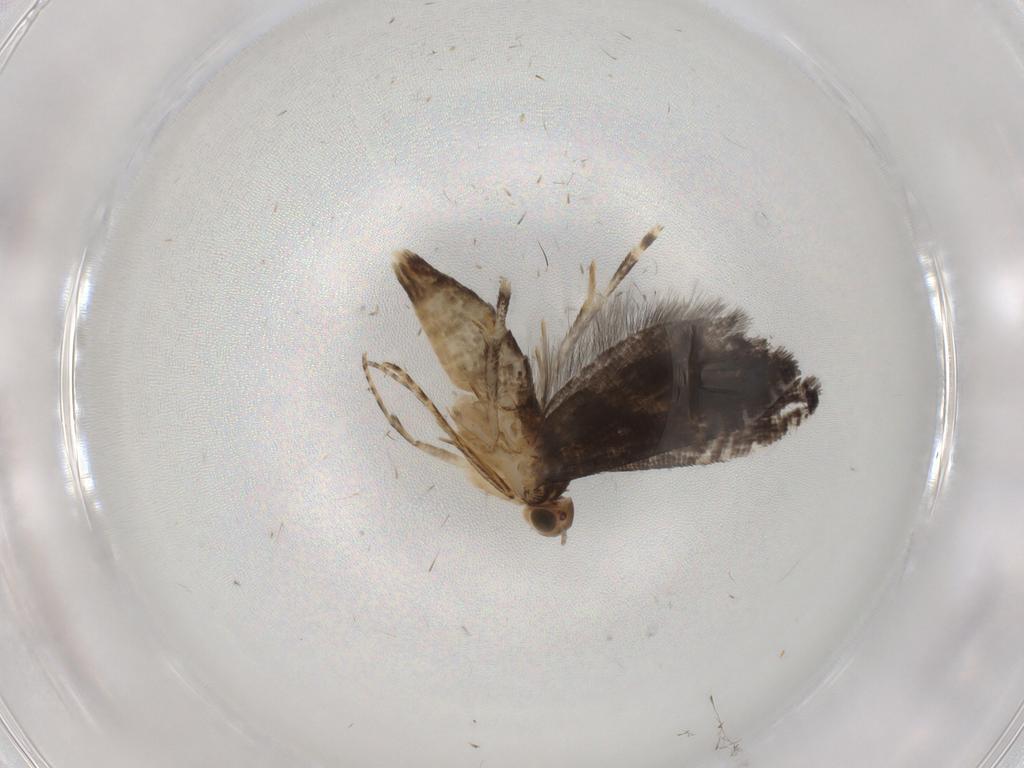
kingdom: Animalia
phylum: Arthropoda
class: Insecta
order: Lepidoptera
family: Glyphipterigidae
